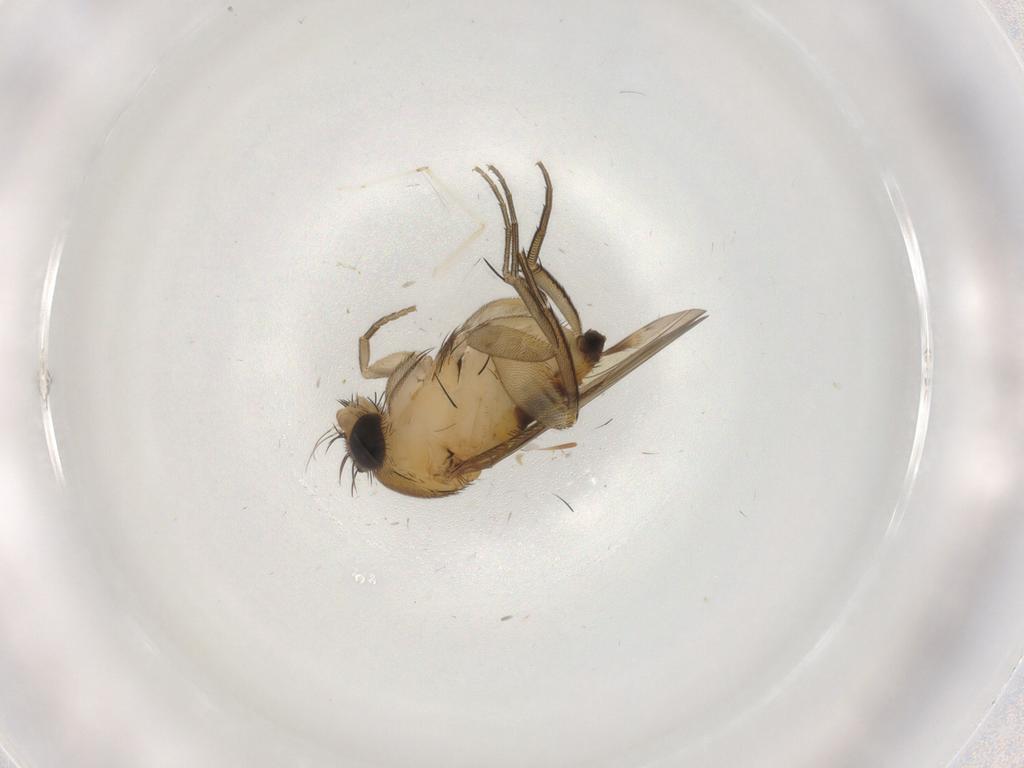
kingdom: Animalia
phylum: Arthropoda
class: Insecta
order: Diptera
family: Phoridae
